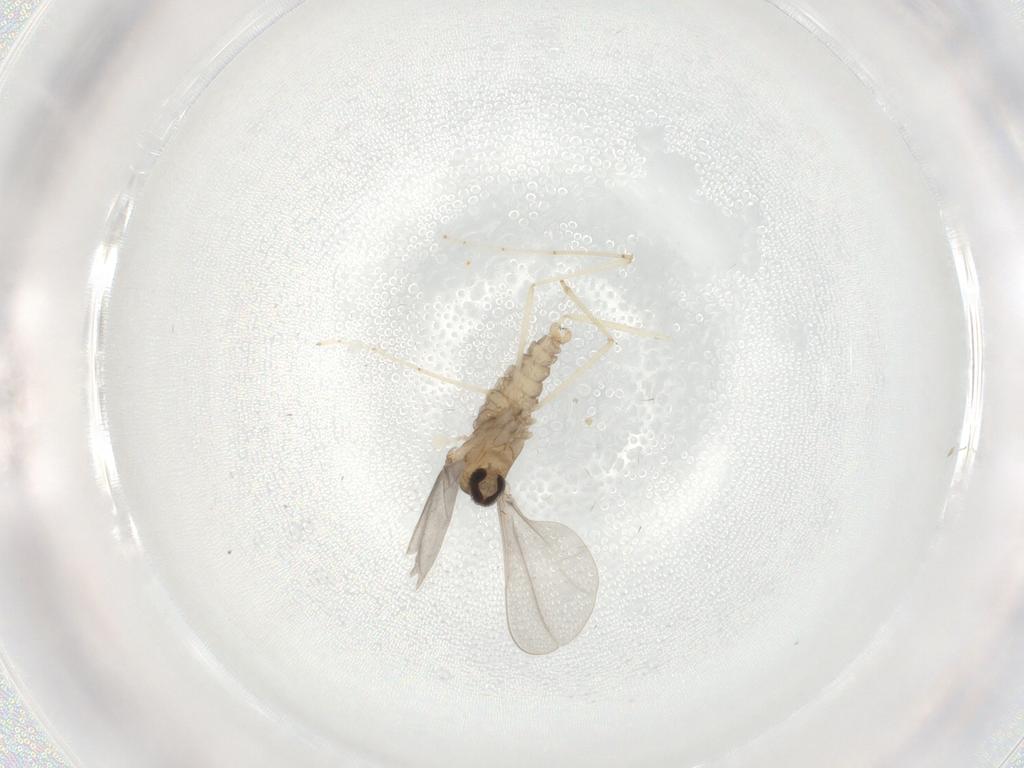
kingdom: Animalia
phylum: Arthropoda
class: Insecta
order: Diptera
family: Cecidomyiidae
